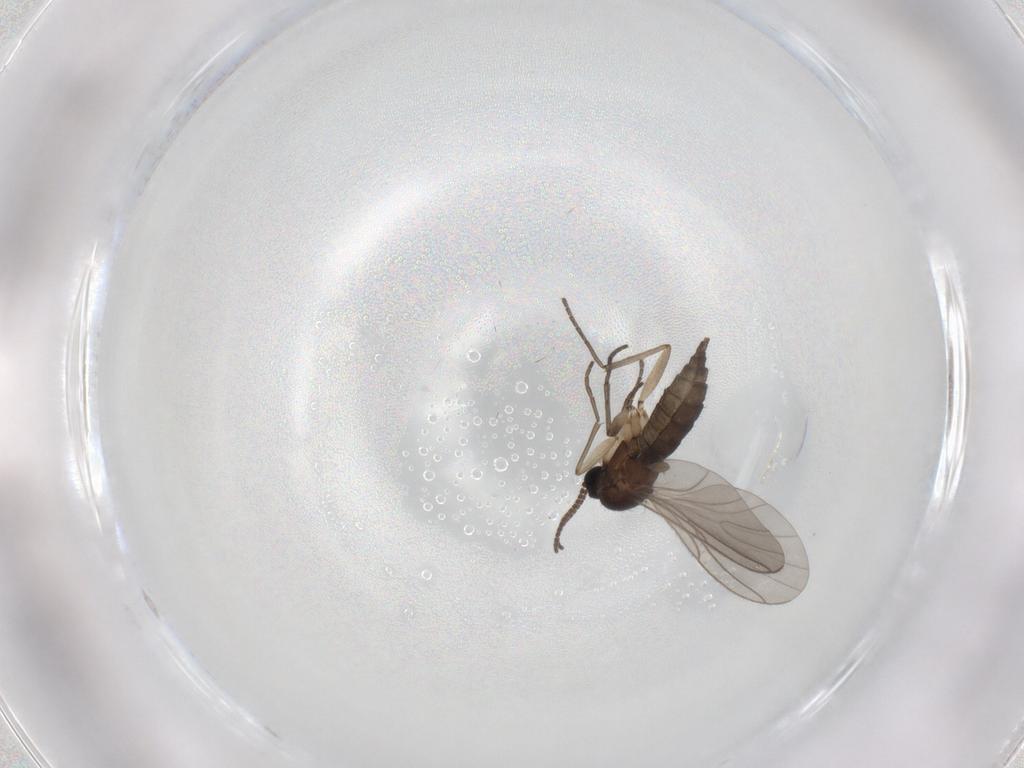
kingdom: Animalia
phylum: Arthropoda
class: Insecta
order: Diptera
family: Sciaridae
